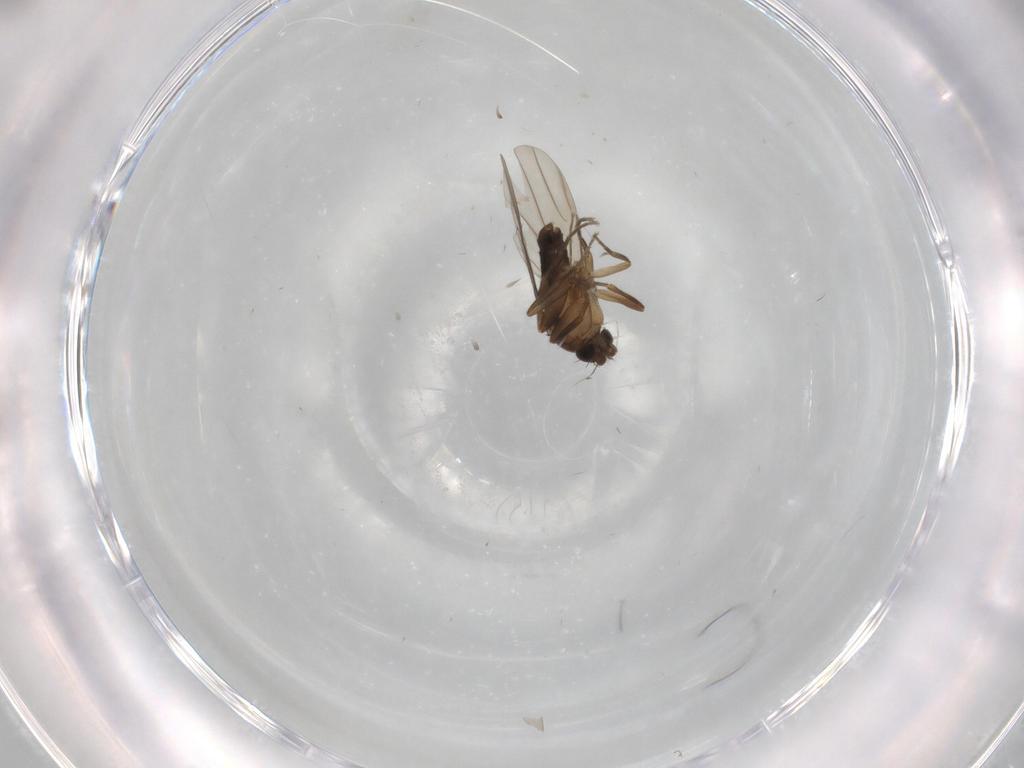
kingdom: Animalia
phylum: Arthropoda
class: Insecta
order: Diptera
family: Phoridae
